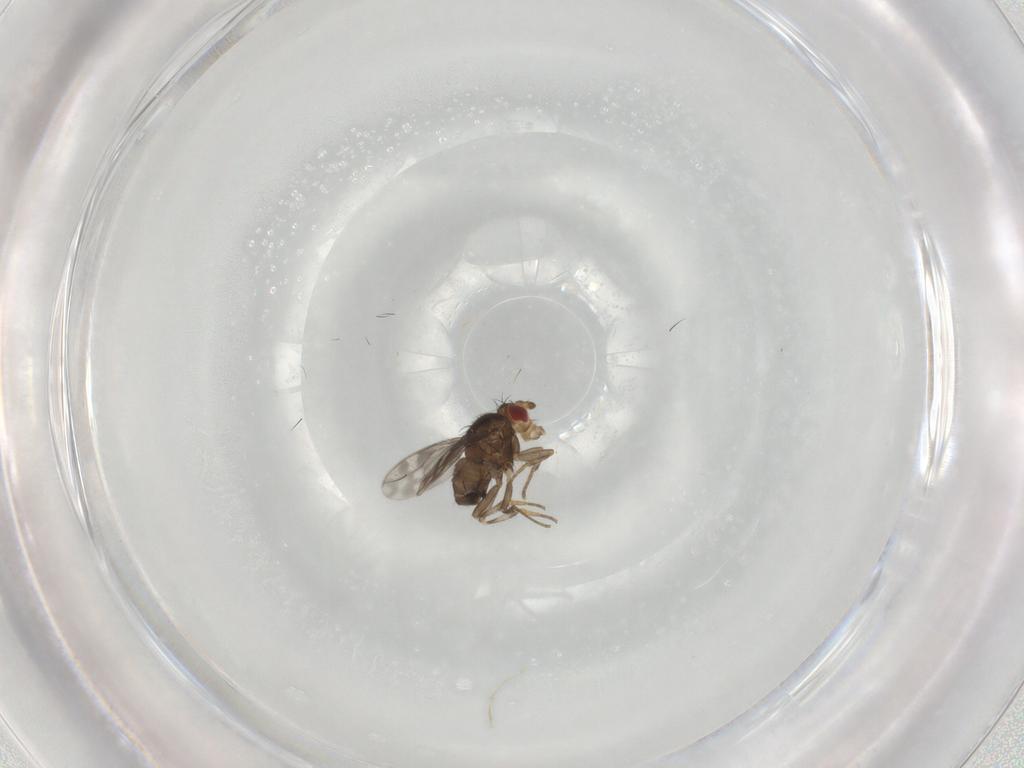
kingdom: Animalia
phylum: Arthropoda
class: Insecta
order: Diptera
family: Sphaeroceridae
